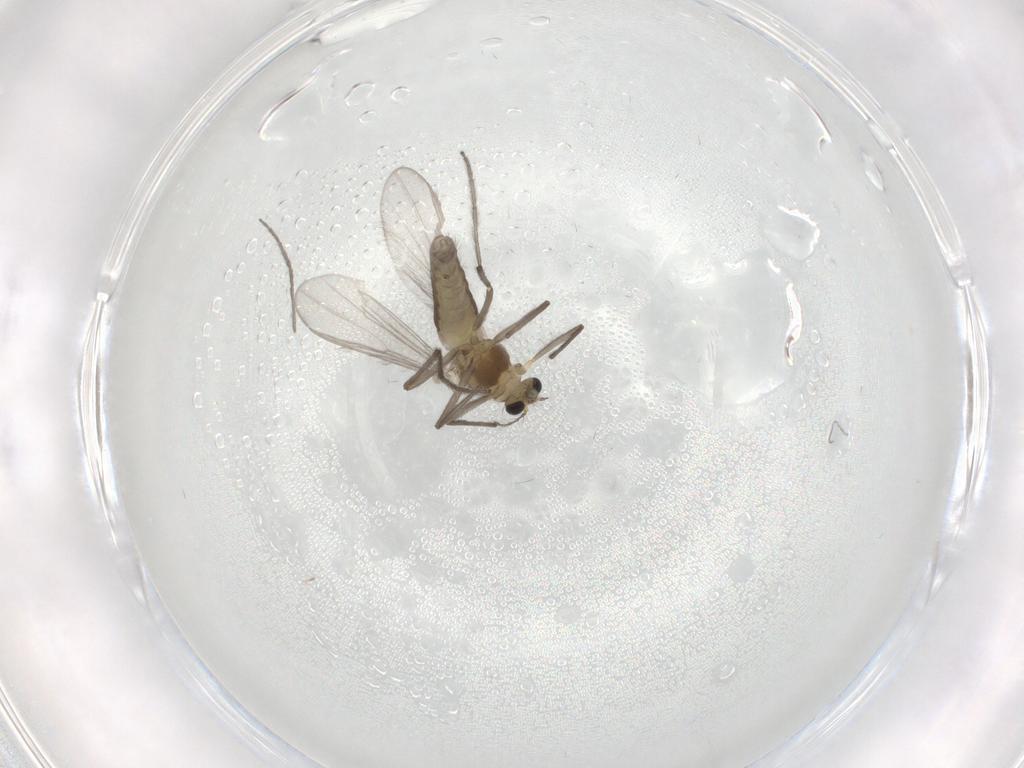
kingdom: Animalia
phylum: Arthropoda
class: Insecta
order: Diptera
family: Chironomidae
